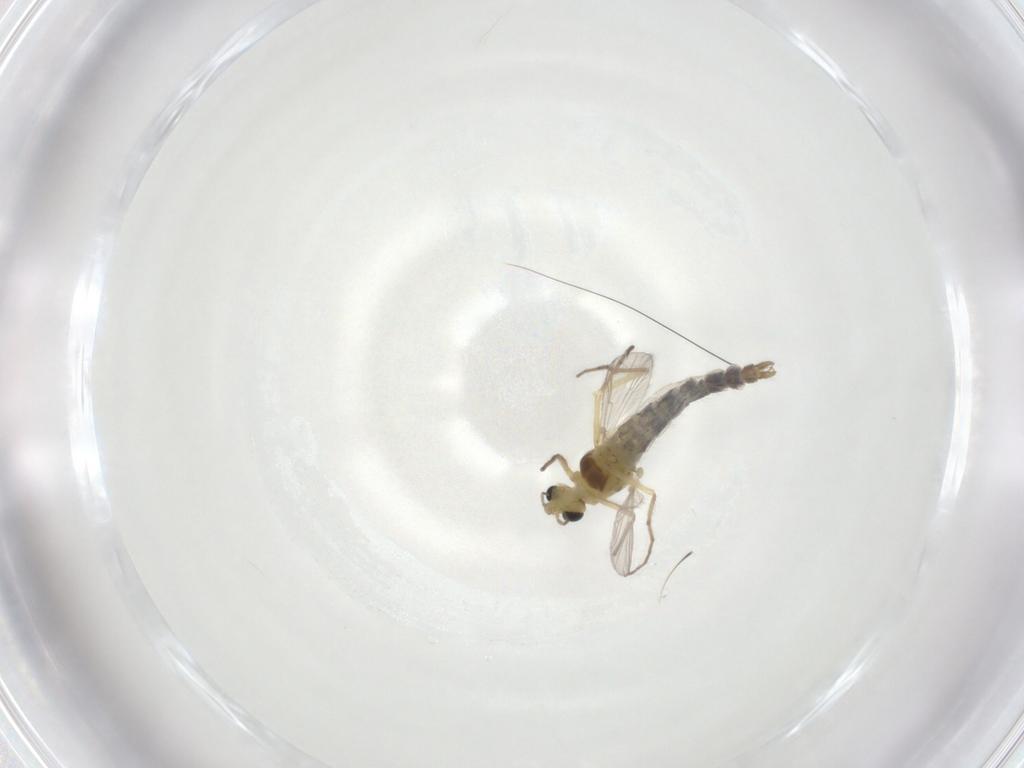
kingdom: Animalia
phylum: Arthropoda
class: Insecta
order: Diptera
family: Chironomidae
